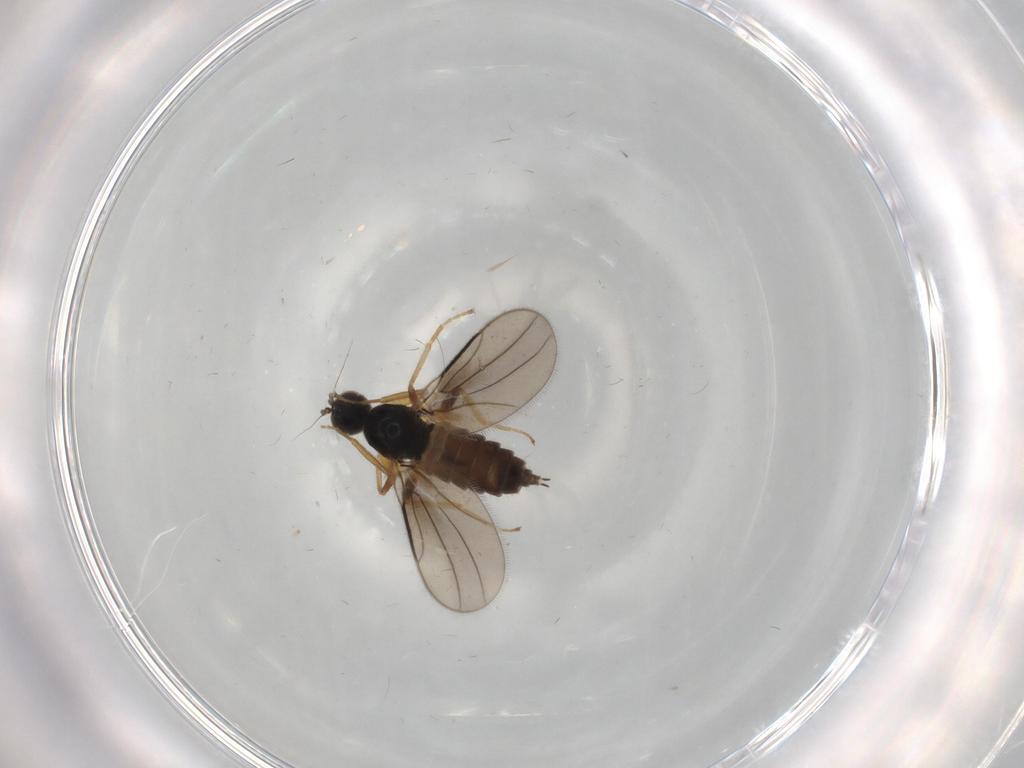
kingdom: Animalia
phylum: Arthropoda
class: Insecta
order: Diptera
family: Hybotidae
